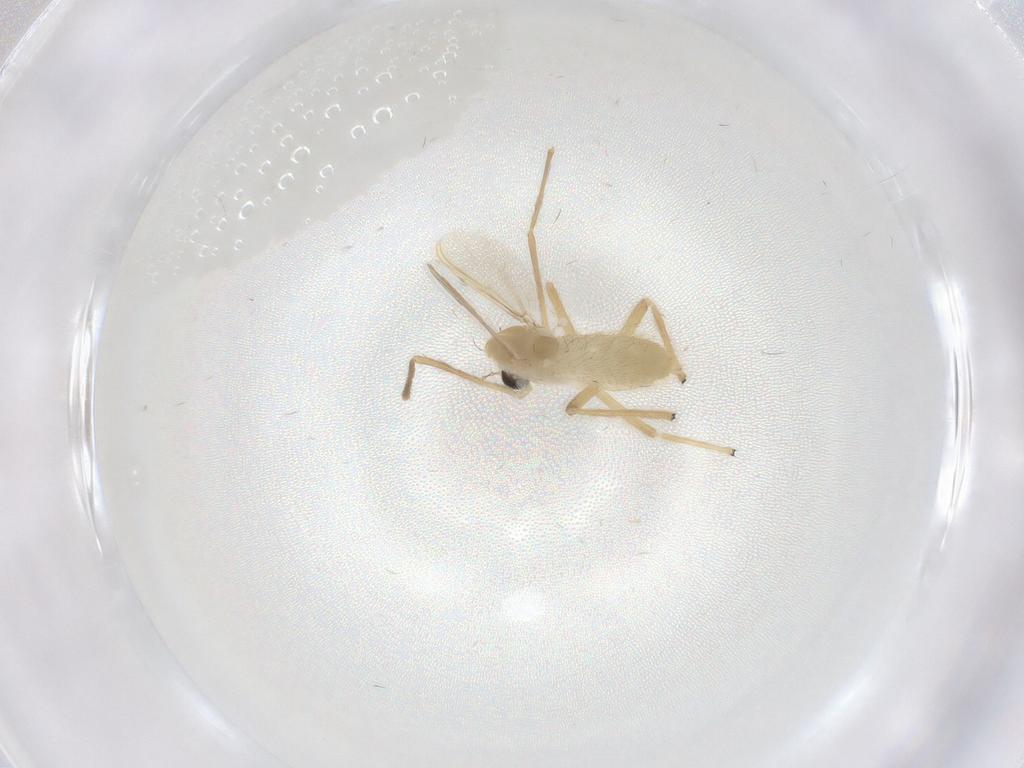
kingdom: Animalia
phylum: Arthropoda
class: Insecta
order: Diptera
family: Chironomidae
